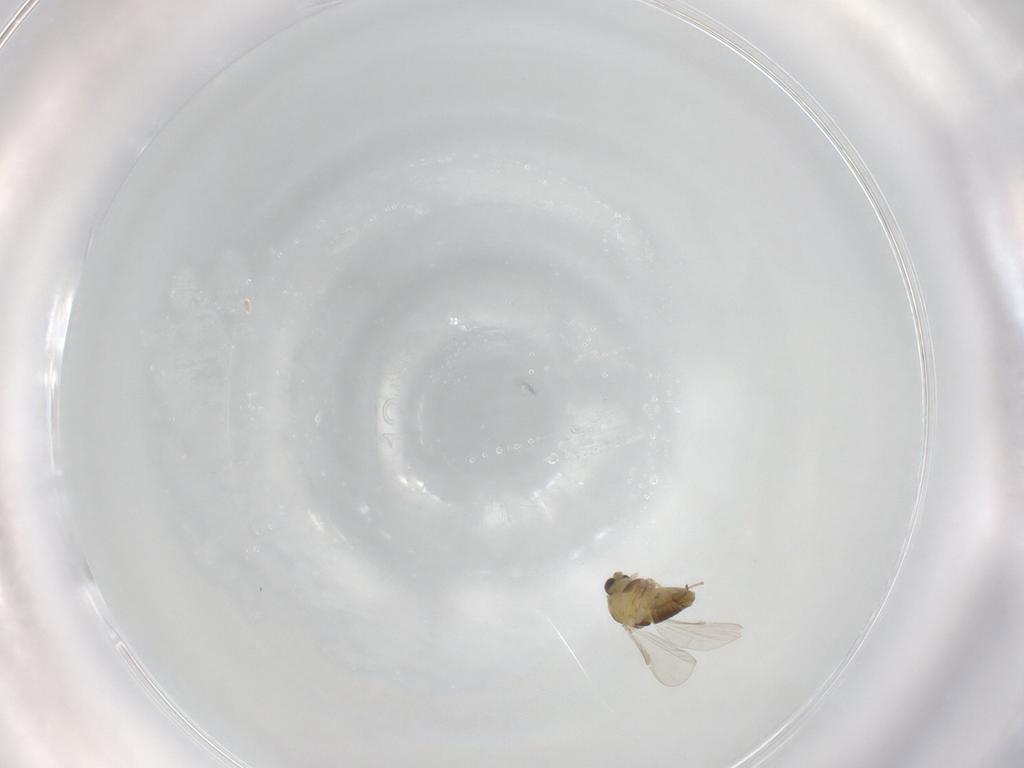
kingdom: Animalia
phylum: Arthropoda
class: Insecta
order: Diptera
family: Chironomidae
